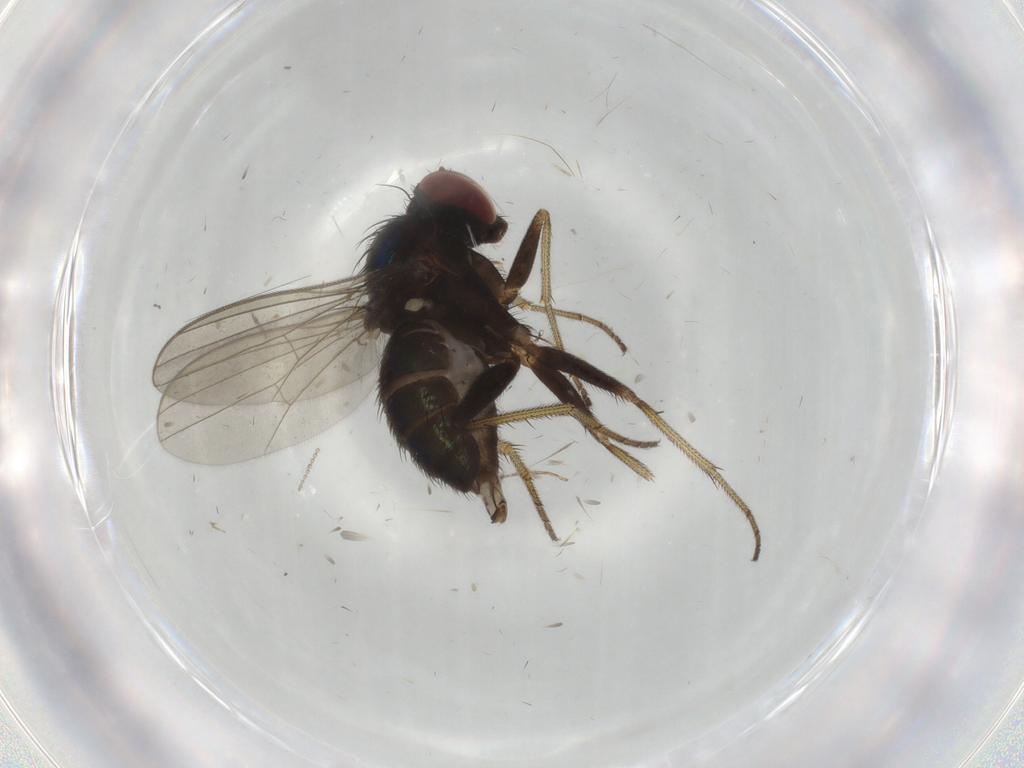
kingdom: Animalia
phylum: Arthropoda
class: Insecta
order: Diptera
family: Dolichopodidae
